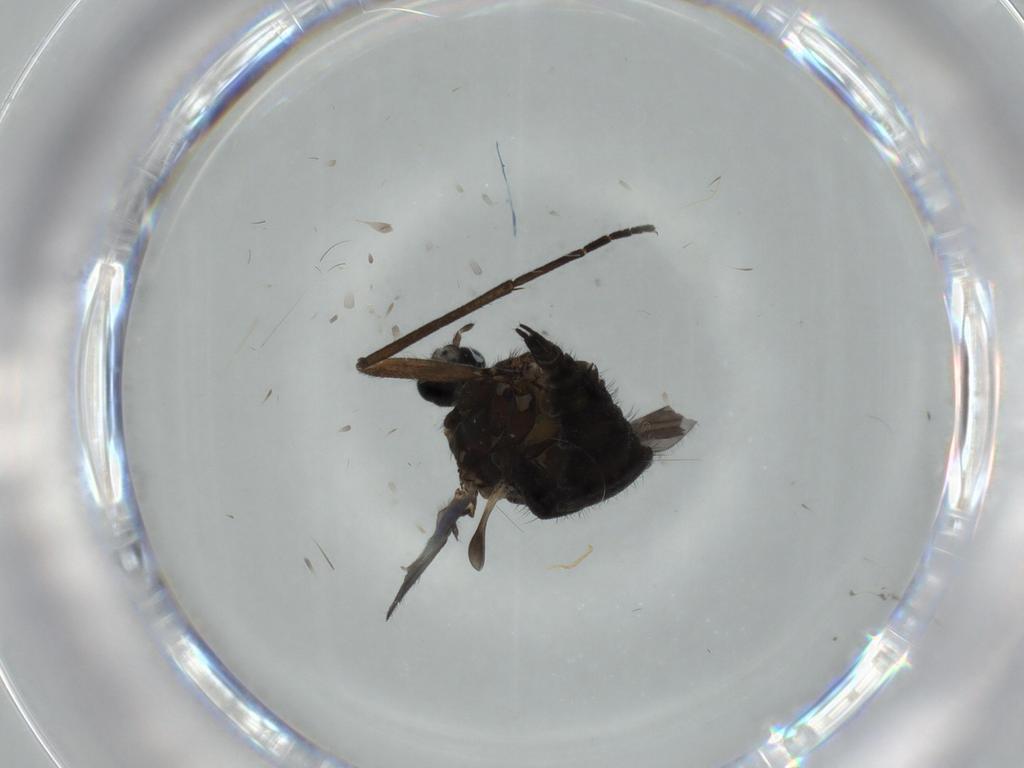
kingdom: Animalia
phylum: Arthropoda
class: Insecta
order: Diptera
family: Sciaridae
